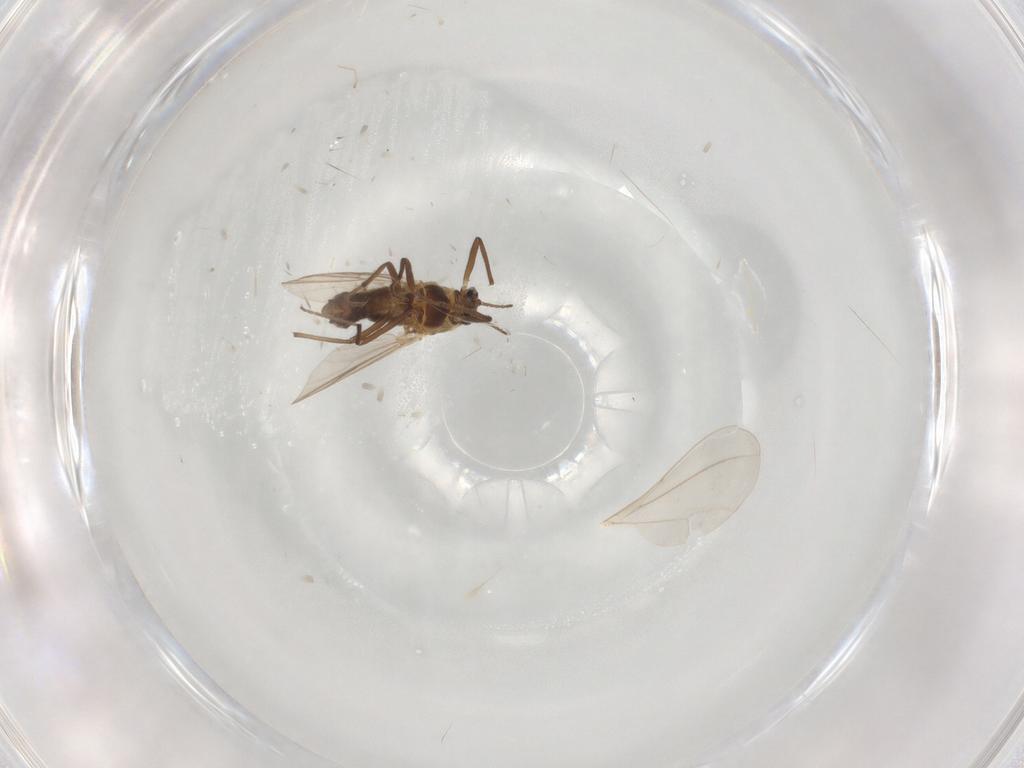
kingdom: Animalia
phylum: Arthropoda
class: Insecta
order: Diptera
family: Chironomidae
